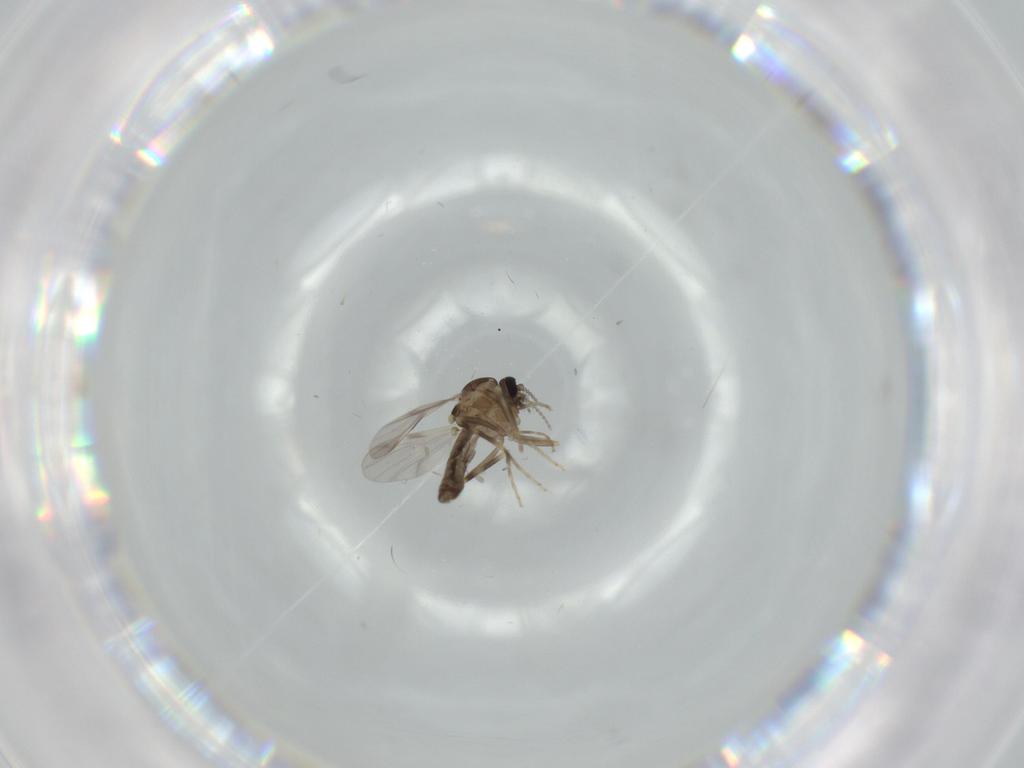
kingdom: Animalia
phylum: Arthropoda
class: Insecta
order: Diptera
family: Ceratopogonidae
